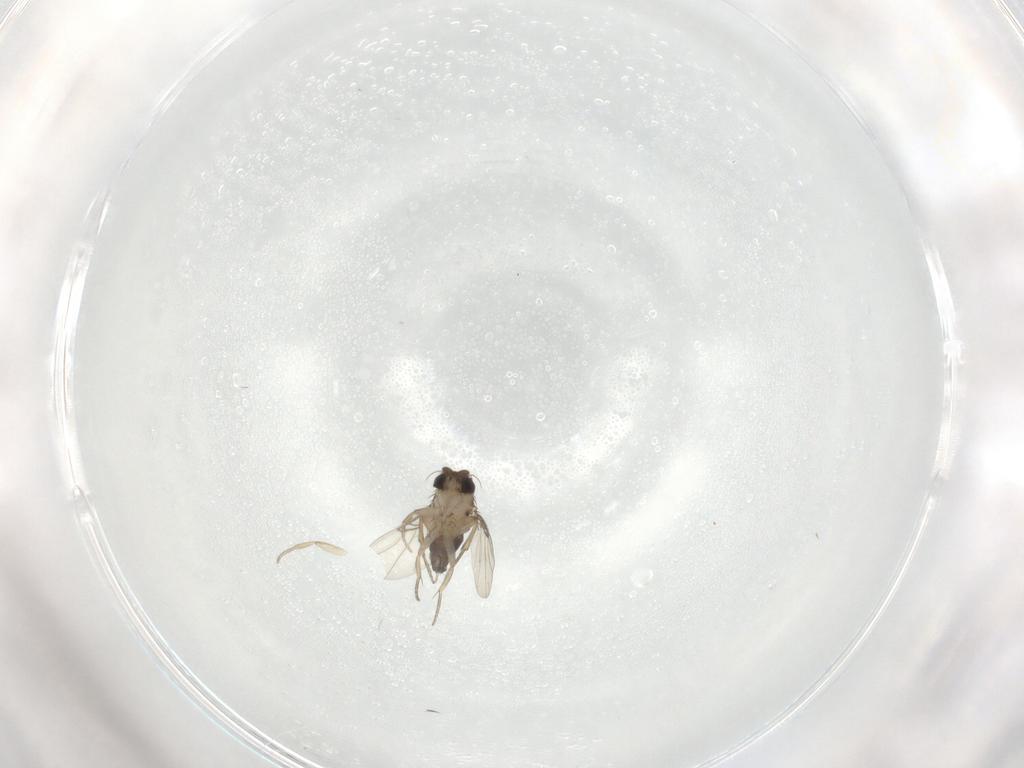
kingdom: Animalia
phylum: Arthropoda
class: Insecta
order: Diptera
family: Phoridae
